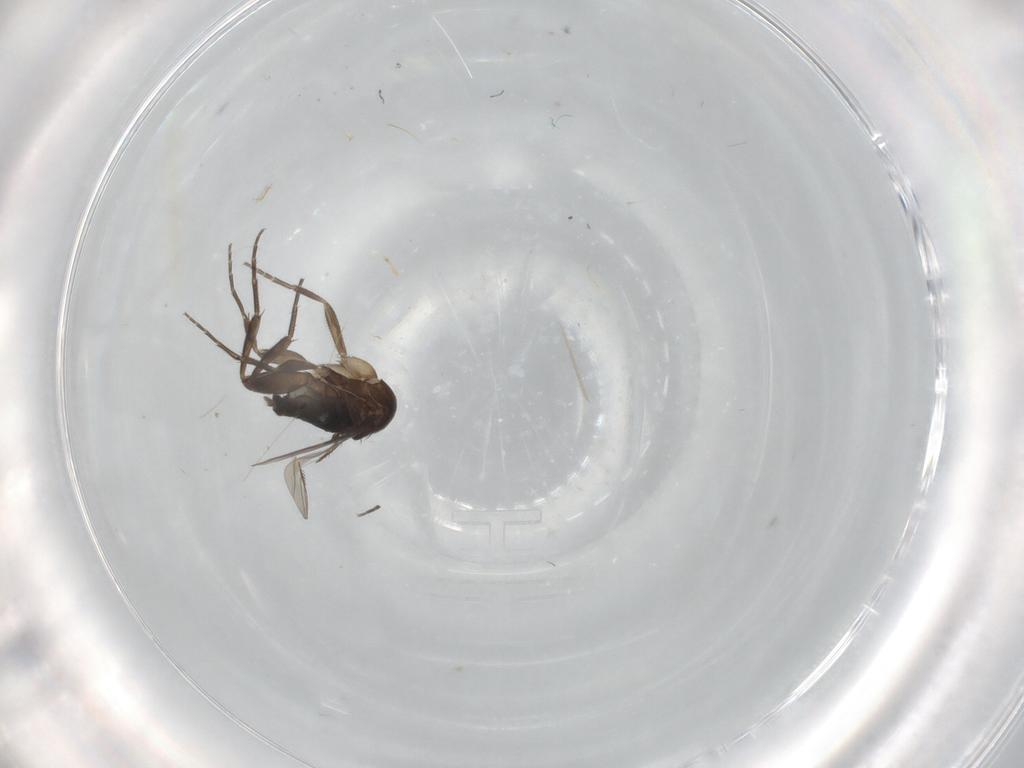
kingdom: Animalia
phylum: Arthropoda
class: Insecta
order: Diptera
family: Phoridae
